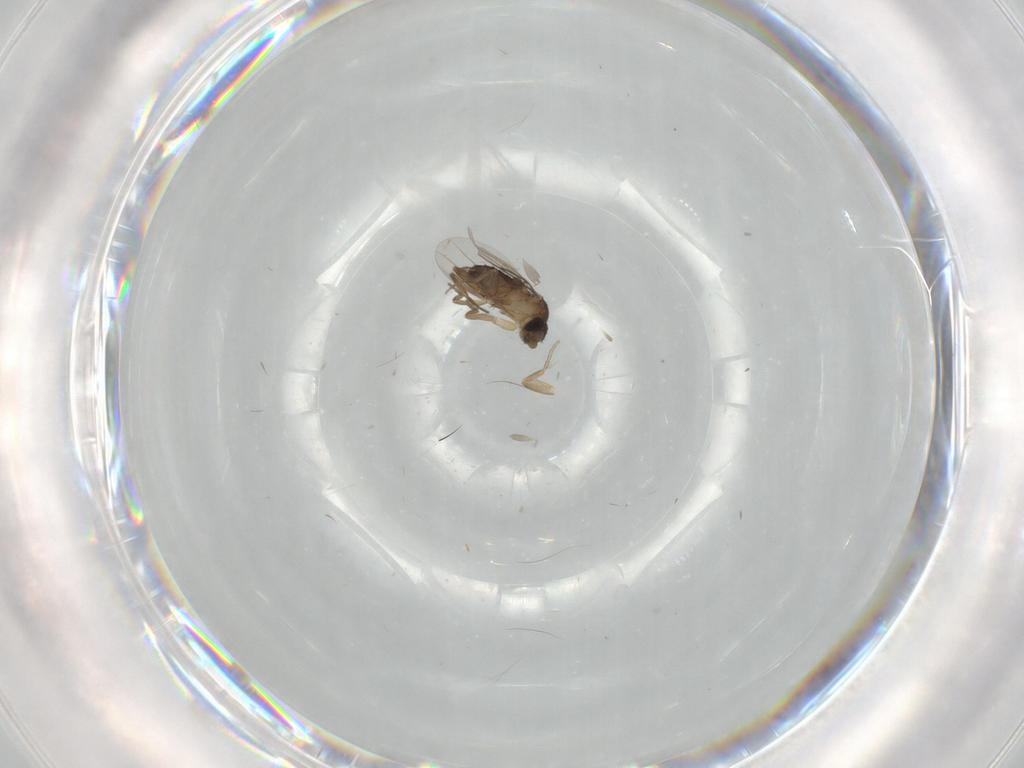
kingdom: Animalia
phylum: Arthropoda
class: Insecta
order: Diptera
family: Phoridae
